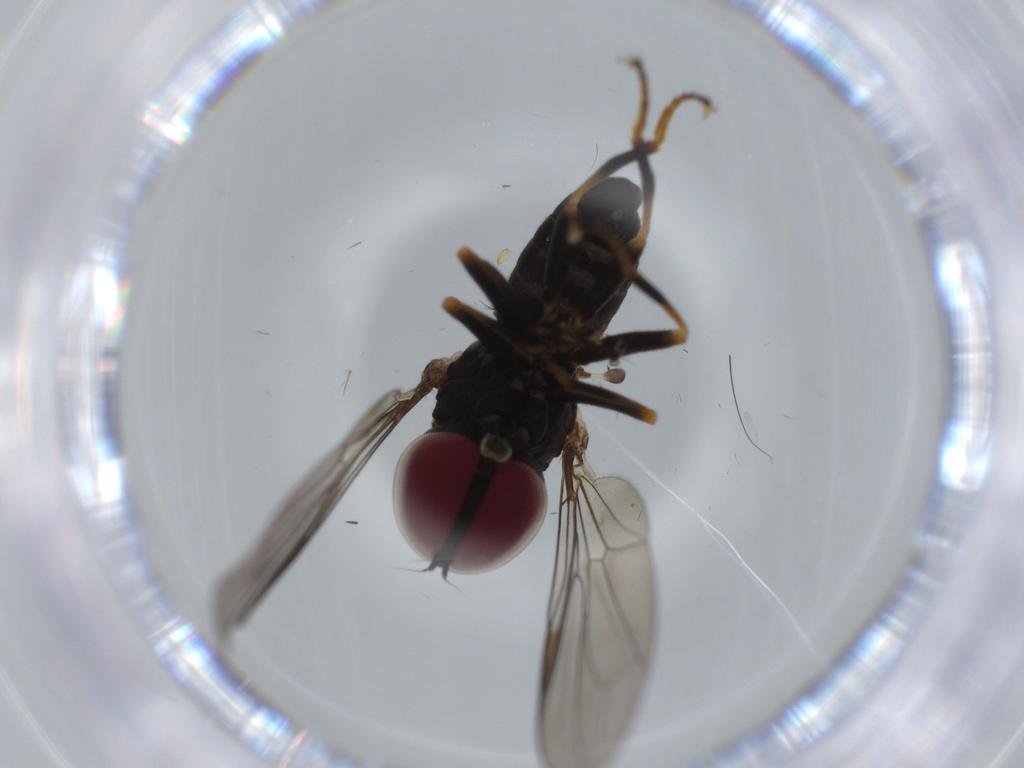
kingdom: Animalia
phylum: Arthropoda
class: Insecta
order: Diptera
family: Pipunculidae
